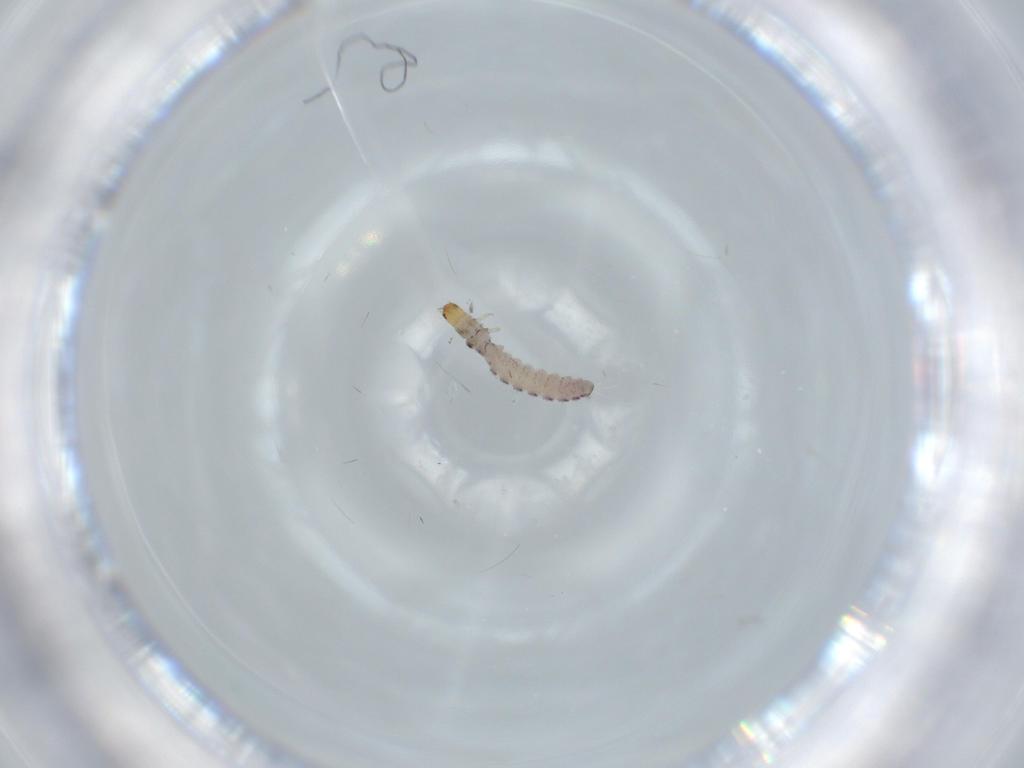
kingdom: Animalia
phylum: Arthropoda
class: Collembola
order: Entomobryomorpha
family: Entomobryidae
